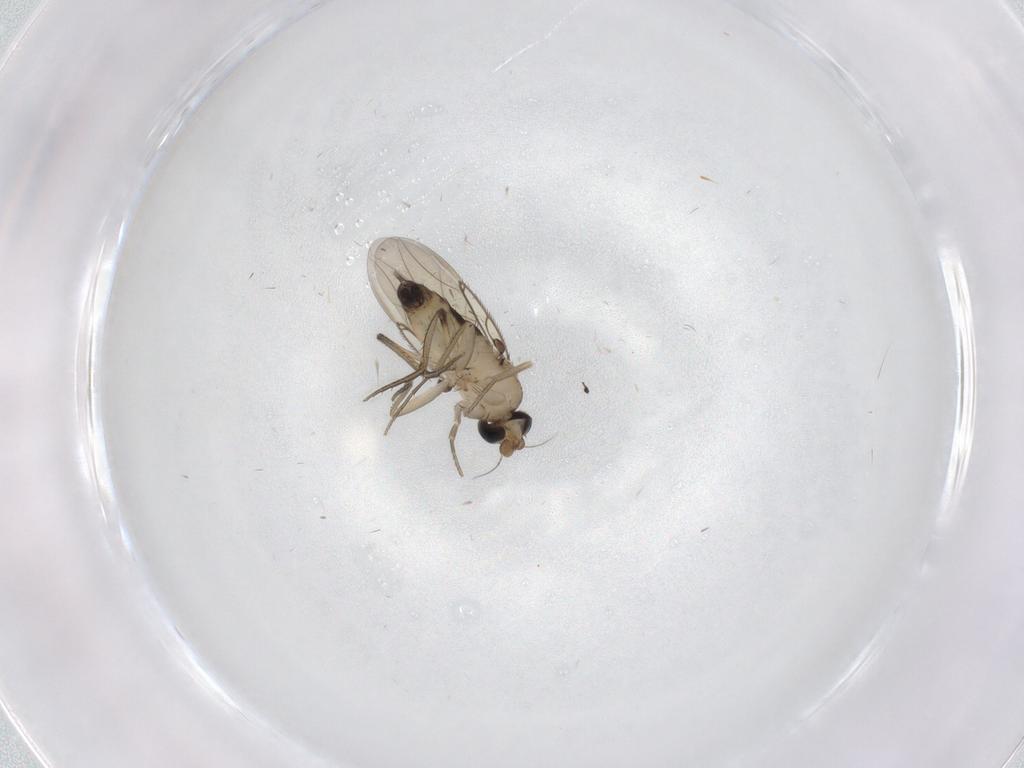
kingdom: Animalia
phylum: Arthropoda
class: Insecta
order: Diptera
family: Phoridae
